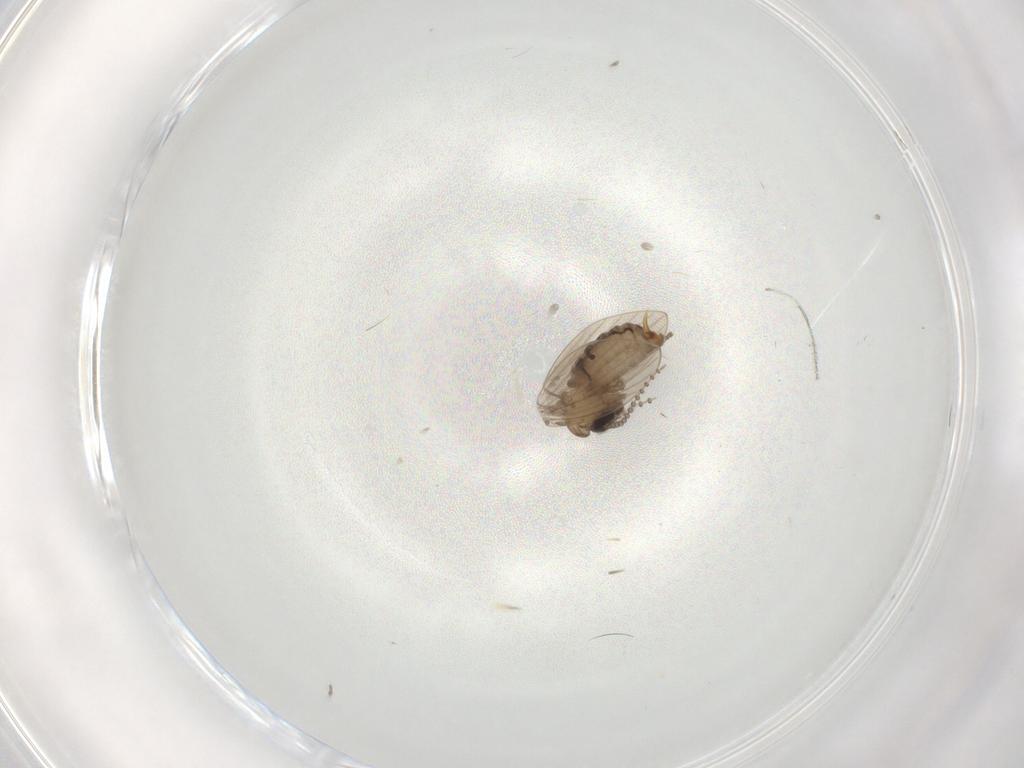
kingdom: Animalia
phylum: Arthropoda
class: Insecta
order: Diptera
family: Psychodidae
